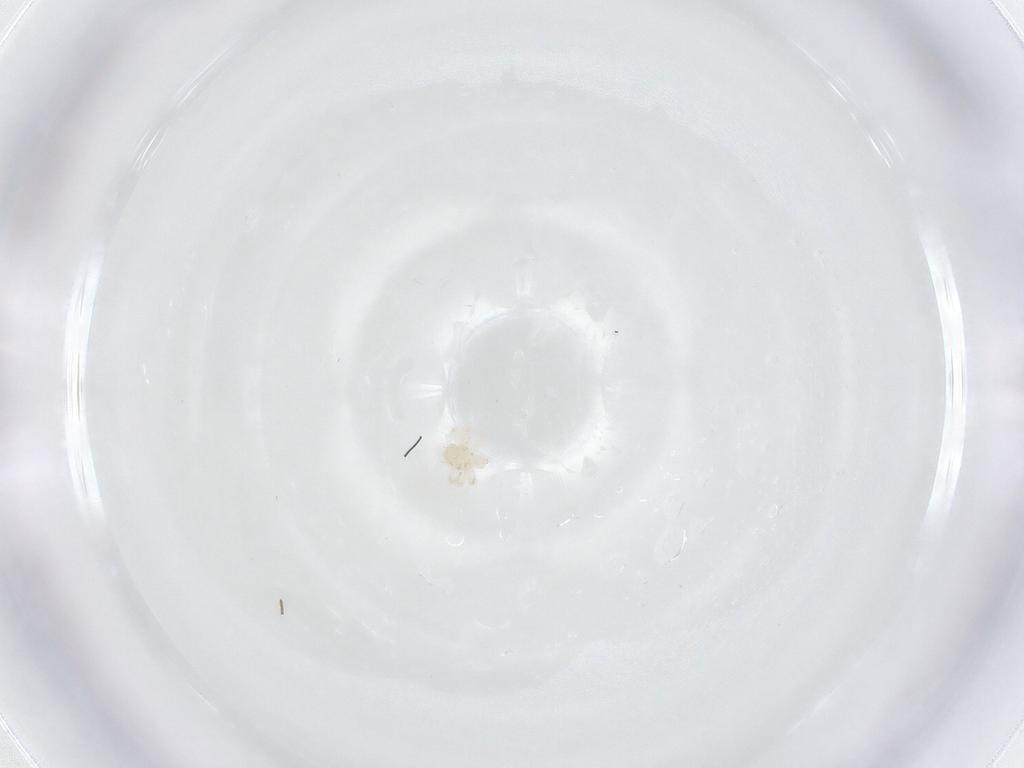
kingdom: Animalia
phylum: Arthropoda
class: Arachnida
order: Trombidiformes
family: Anystidae
